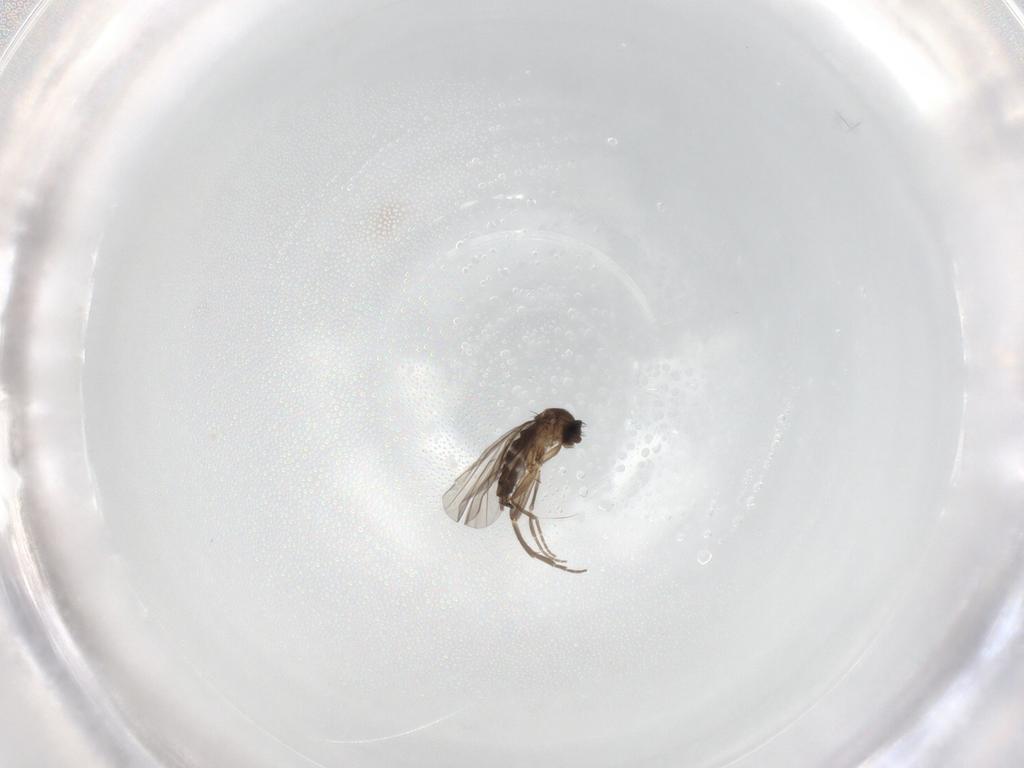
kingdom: Animalia
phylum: Arthropoda
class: Insecta
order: Diptera
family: Phoridae
